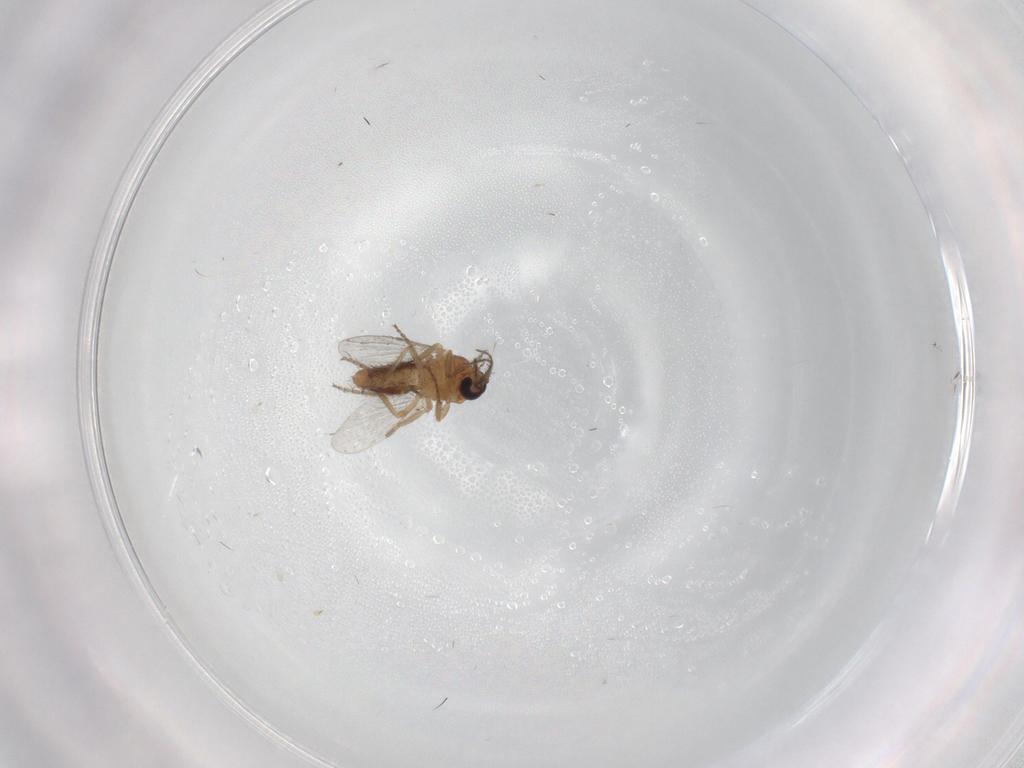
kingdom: Animalia
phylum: Arthropoda
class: Insecta
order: Diptera
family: Ceratopogonidae
